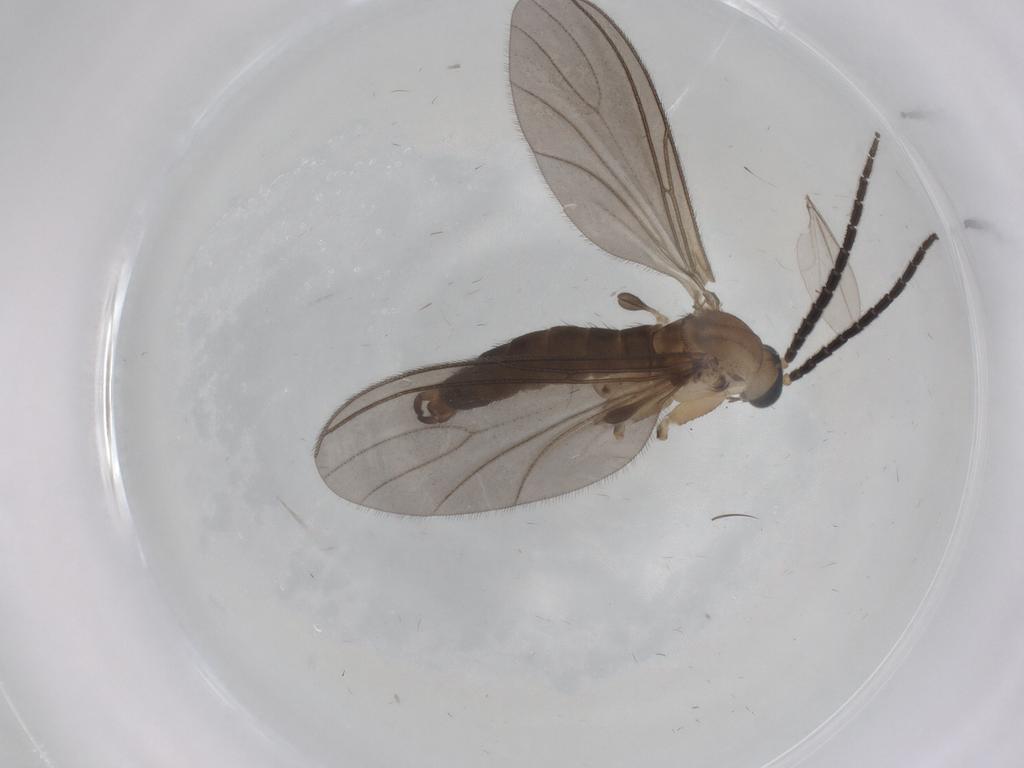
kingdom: Animalia
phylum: Arthropoda
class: Insecta
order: Diptera
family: Cecidomyiidae
